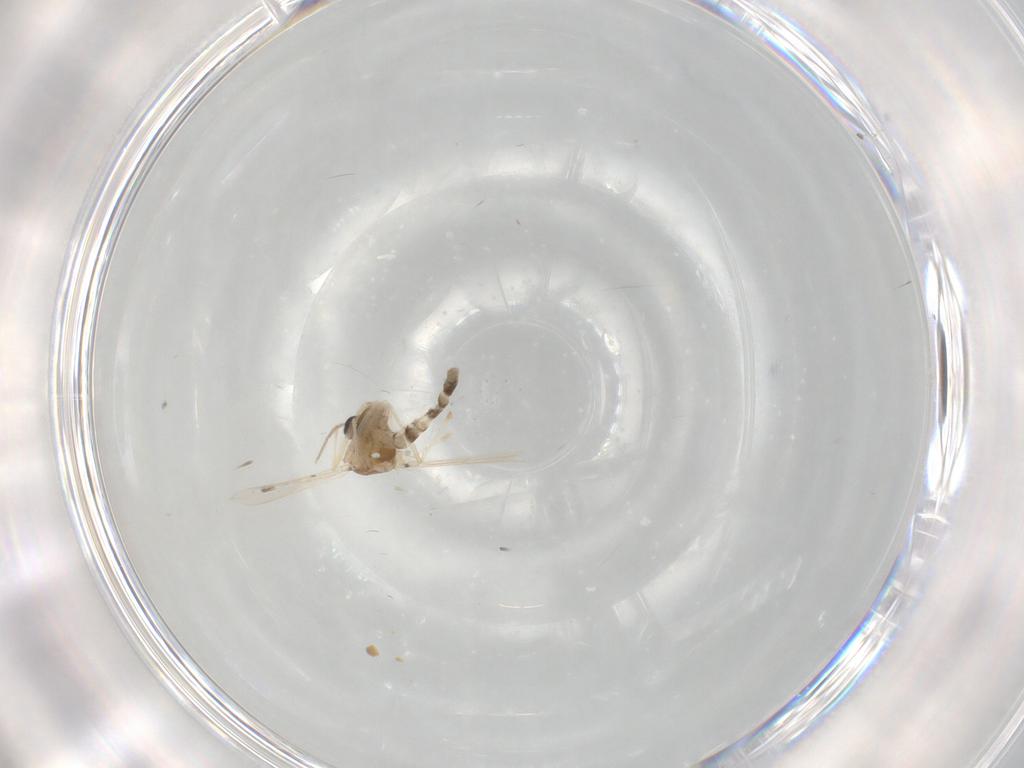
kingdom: Animalia
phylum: Arthropoda
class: Insecta
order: Diptera
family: Chironomidae
